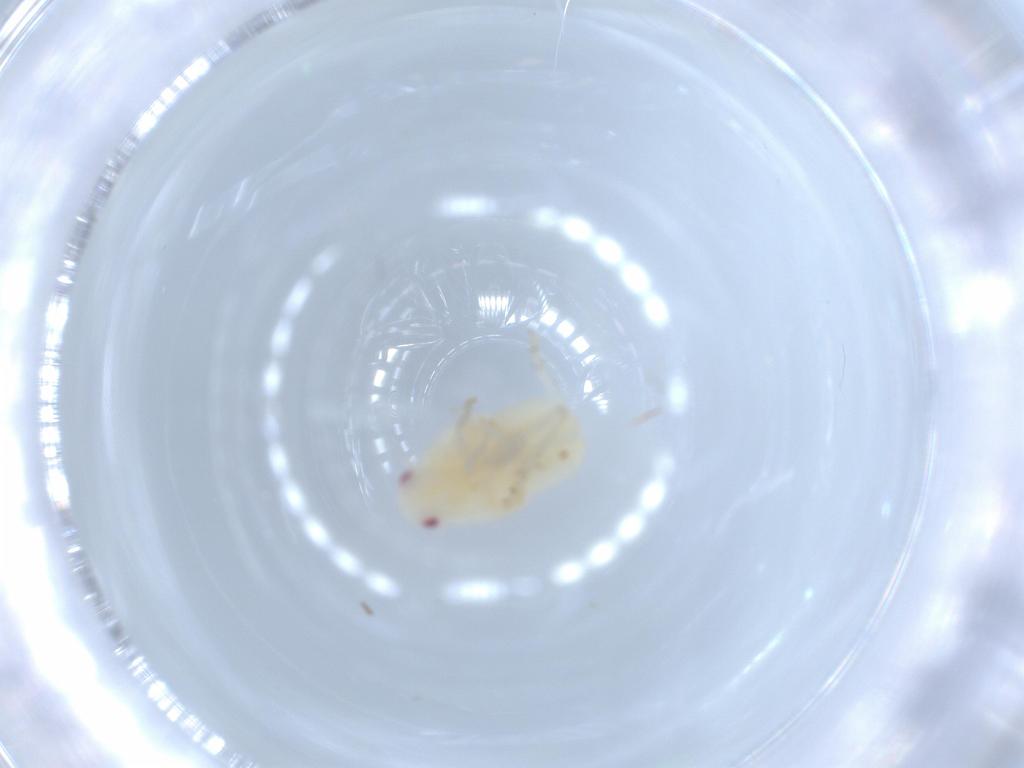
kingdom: Animalia
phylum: Arthropoda
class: Insecta
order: Hemiptera
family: Flatidae
